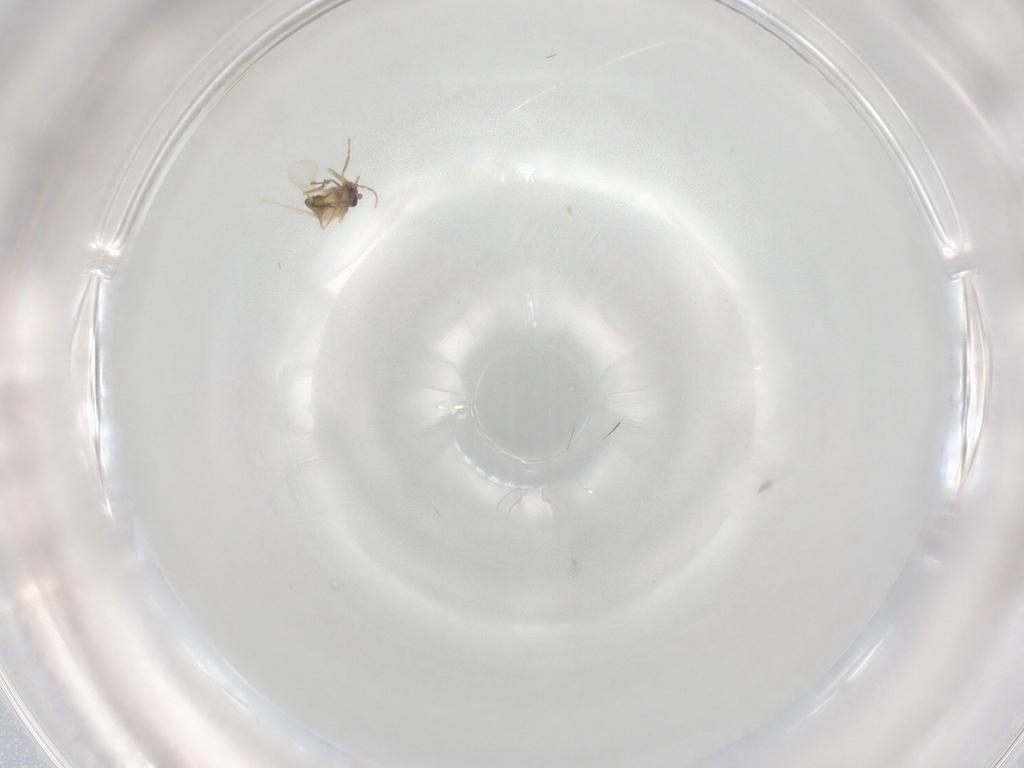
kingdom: Animalia
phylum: Arthropoda
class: Insecta
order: Diptera
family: Ceratopogonidae
